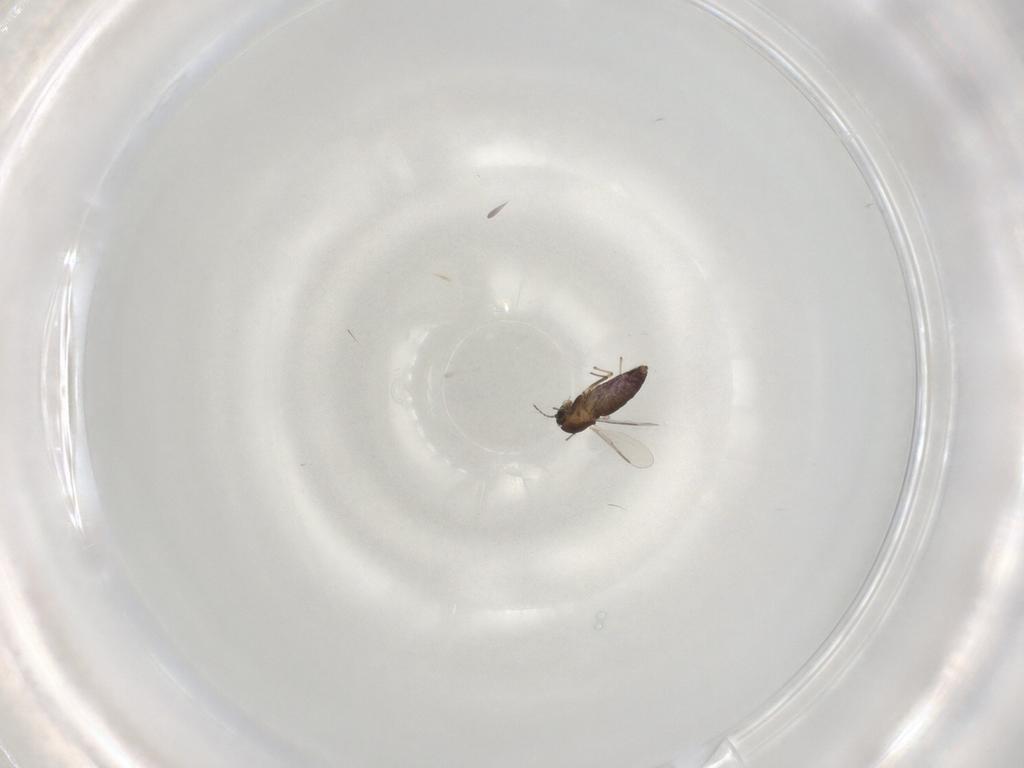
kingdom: Animalia
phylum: Arthropoda
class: Insecta
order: Diptera
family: Chironomidae
